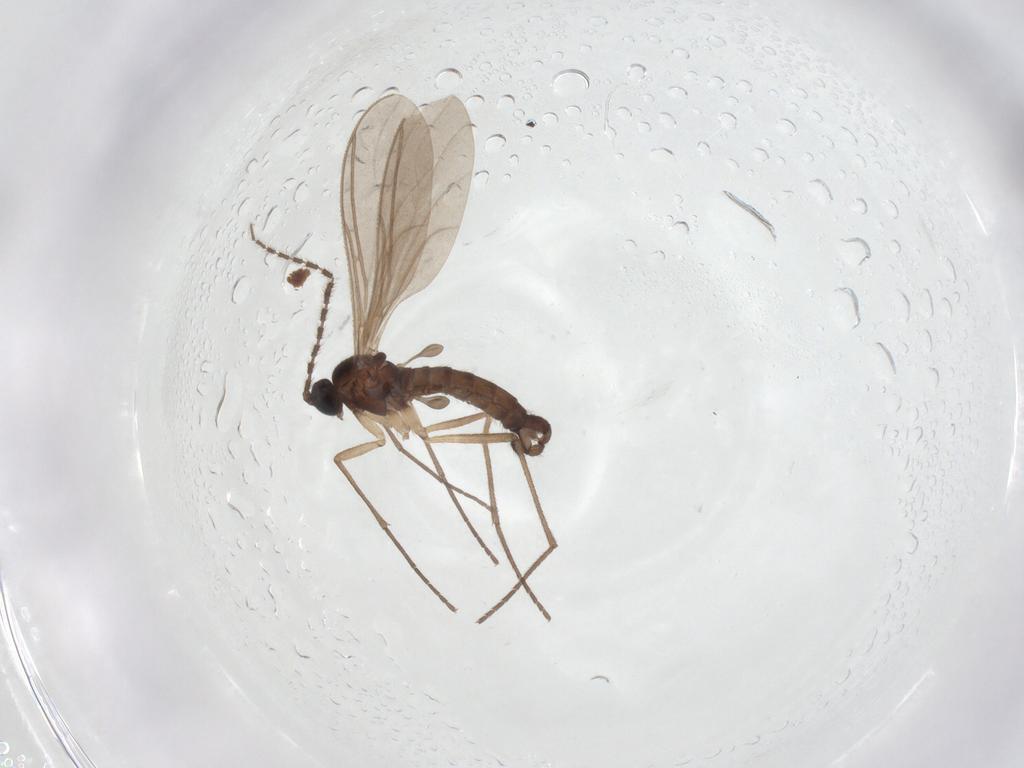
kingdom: Animalia
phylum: Arthropoda
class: Insecta
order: Diptera
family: Sciaridae
